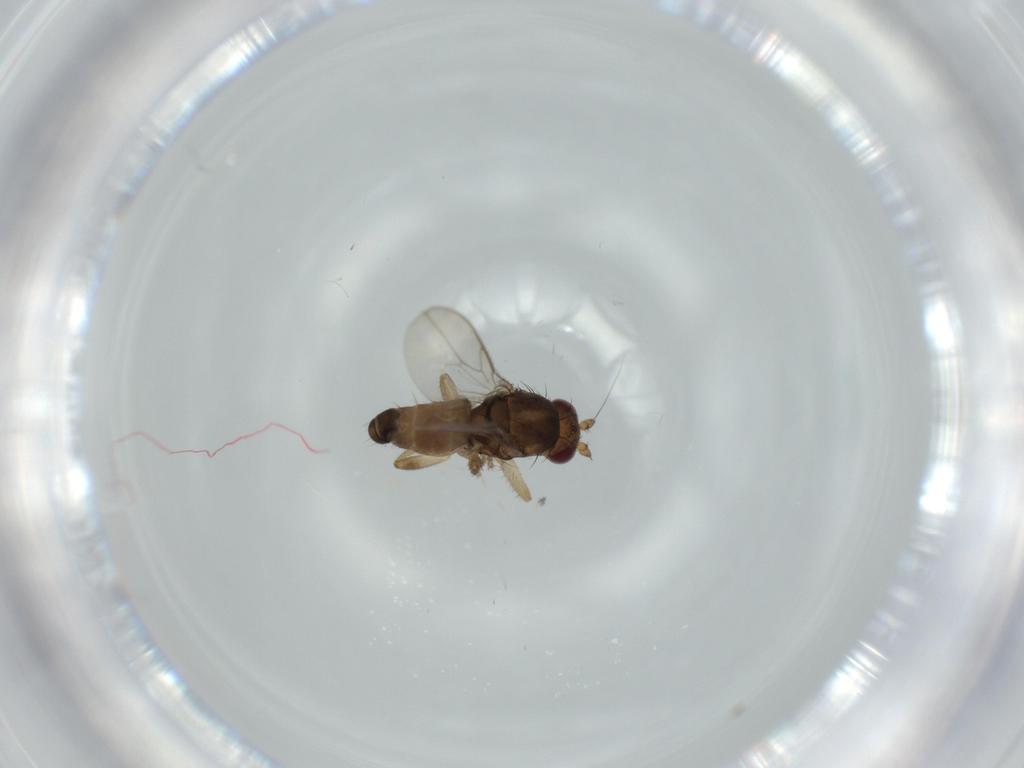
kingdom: Animalia
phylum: Arthropoda
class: Insecta
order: Diptera
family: Sphaeroceridae
